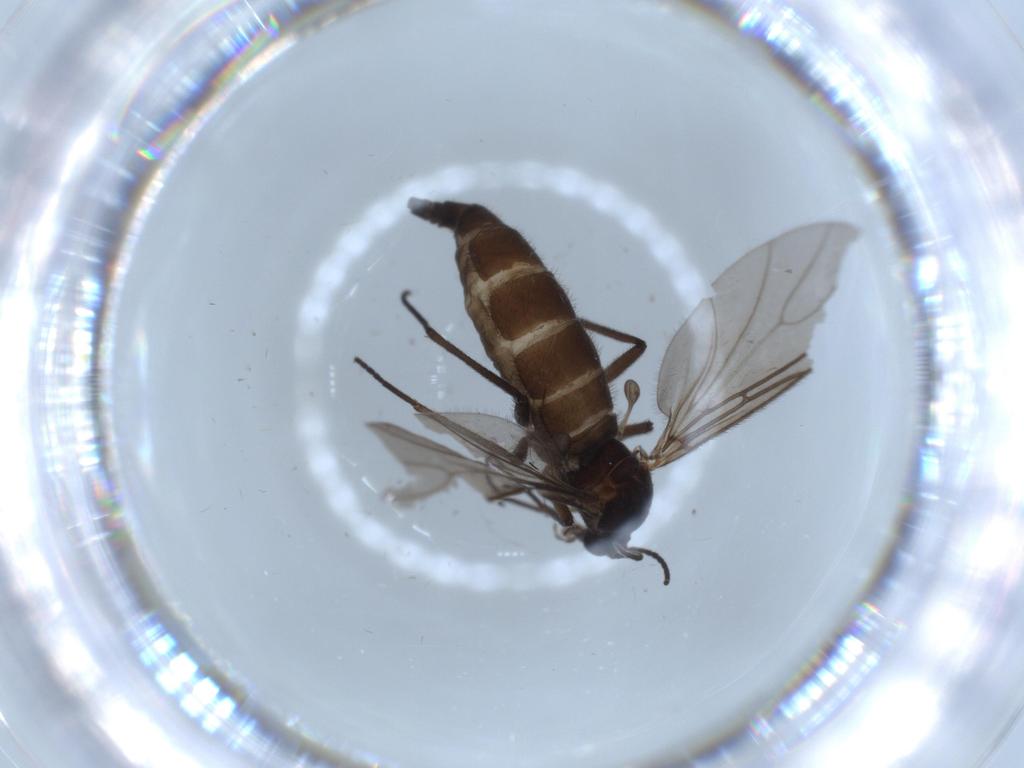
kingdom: Animalia
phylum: Arthropoda
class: Insecta
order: Diptera
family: Sciaridae
